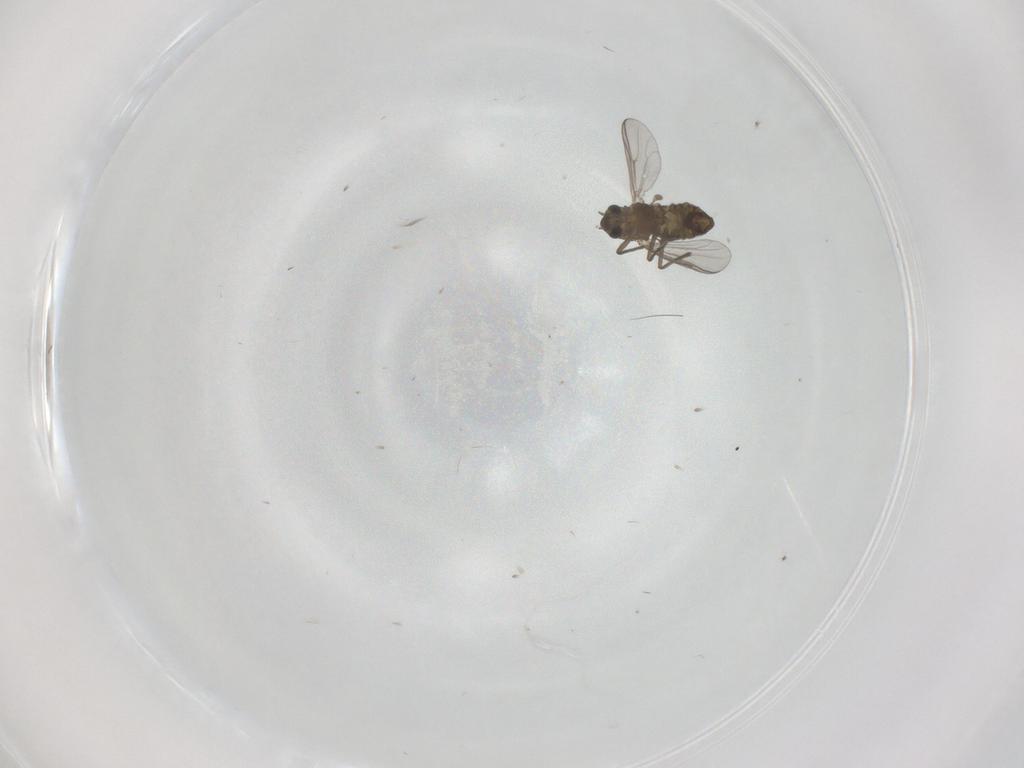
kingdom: Animalia
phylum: Arthropoda
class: Insecta
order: Diptera
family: Chironomidae
